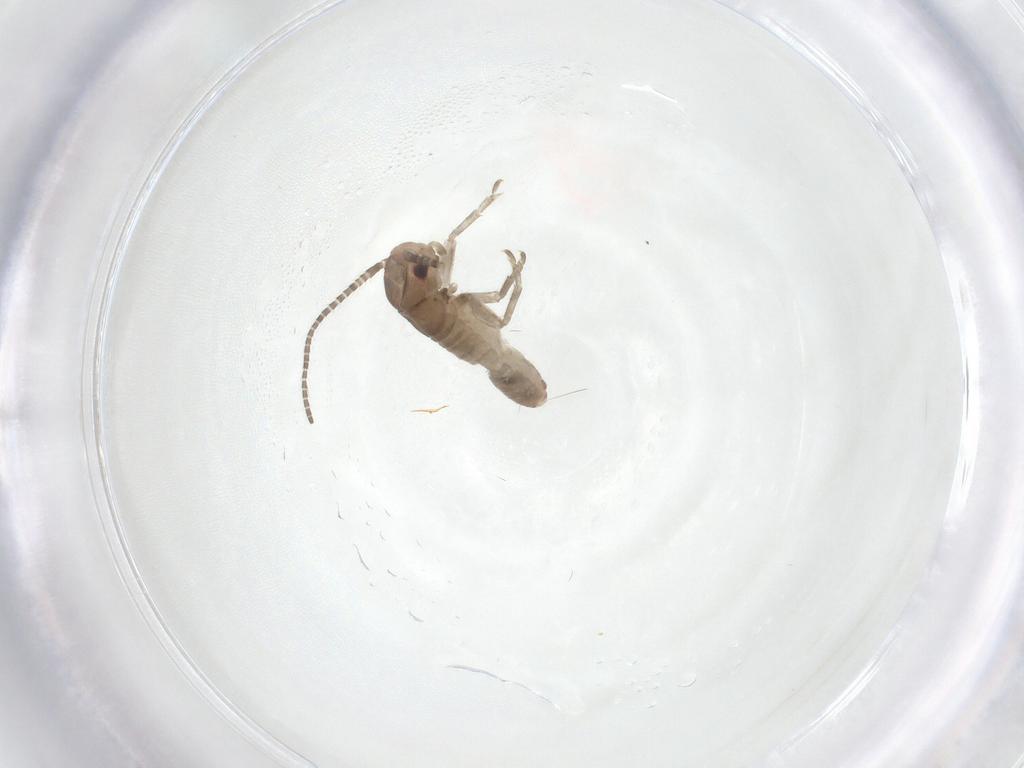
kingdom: Animalia
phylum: Arthropoda
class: Insecta
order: Orthoptera
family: Gryllidae
